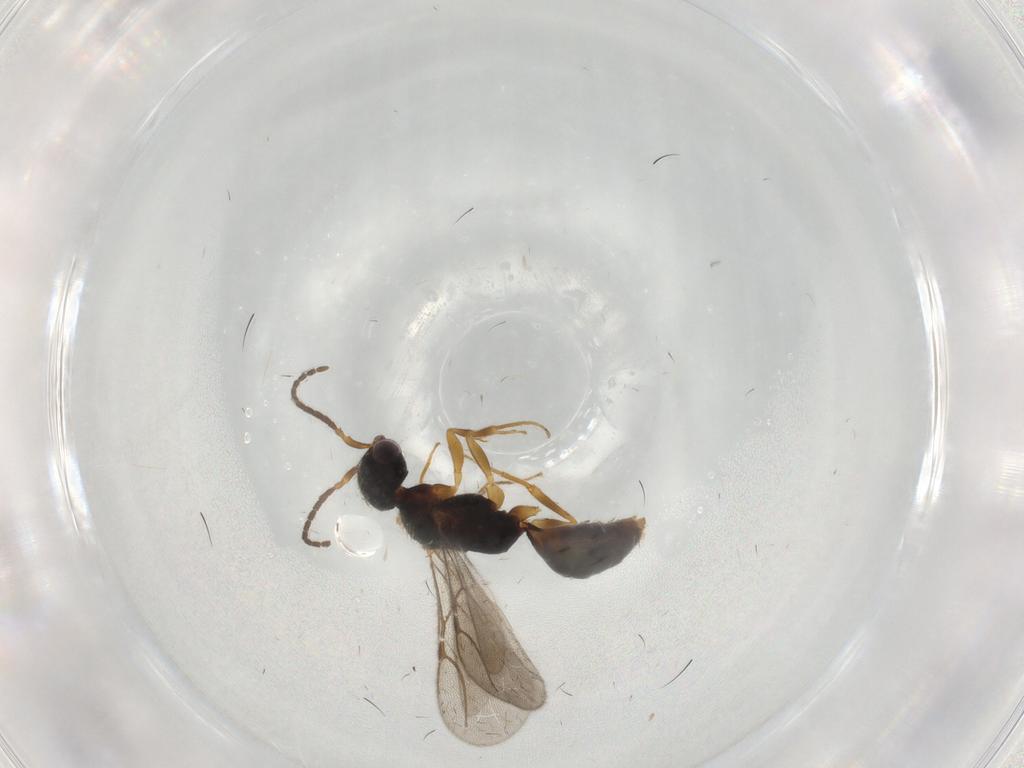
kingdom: Animalia
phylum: Arthropoda
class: Insecta
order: Hymenoptera
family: Bethylidae
